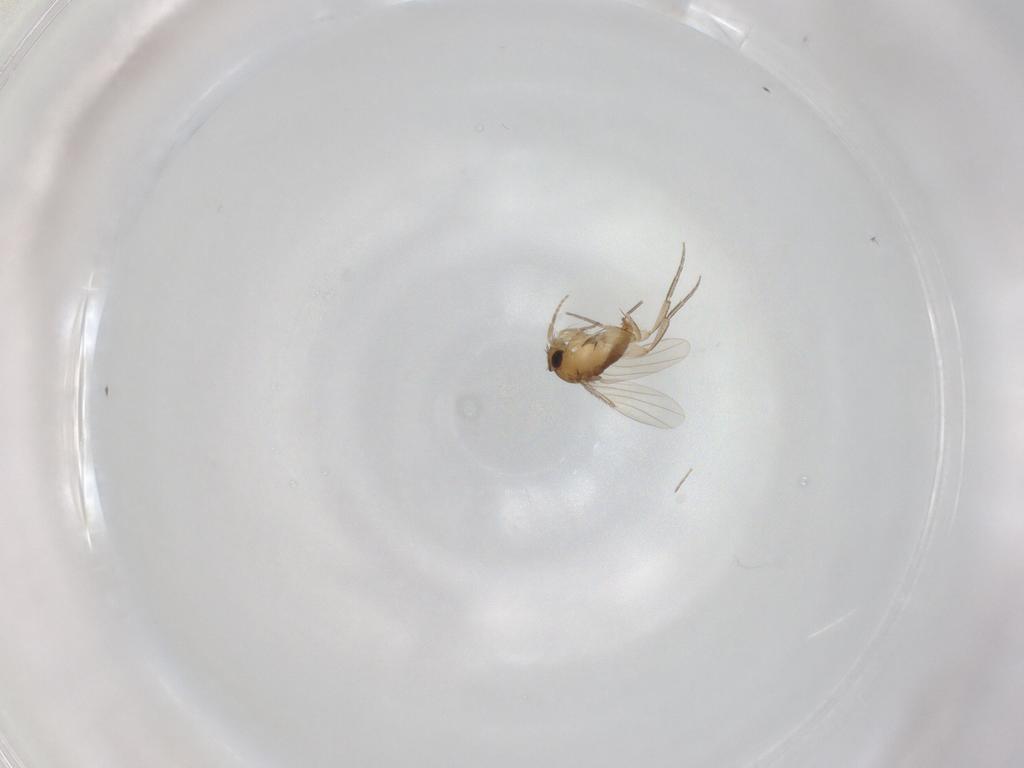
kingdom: Animalia
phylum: Arthropoda
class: Insecta
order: Diptera
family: Phoridae
